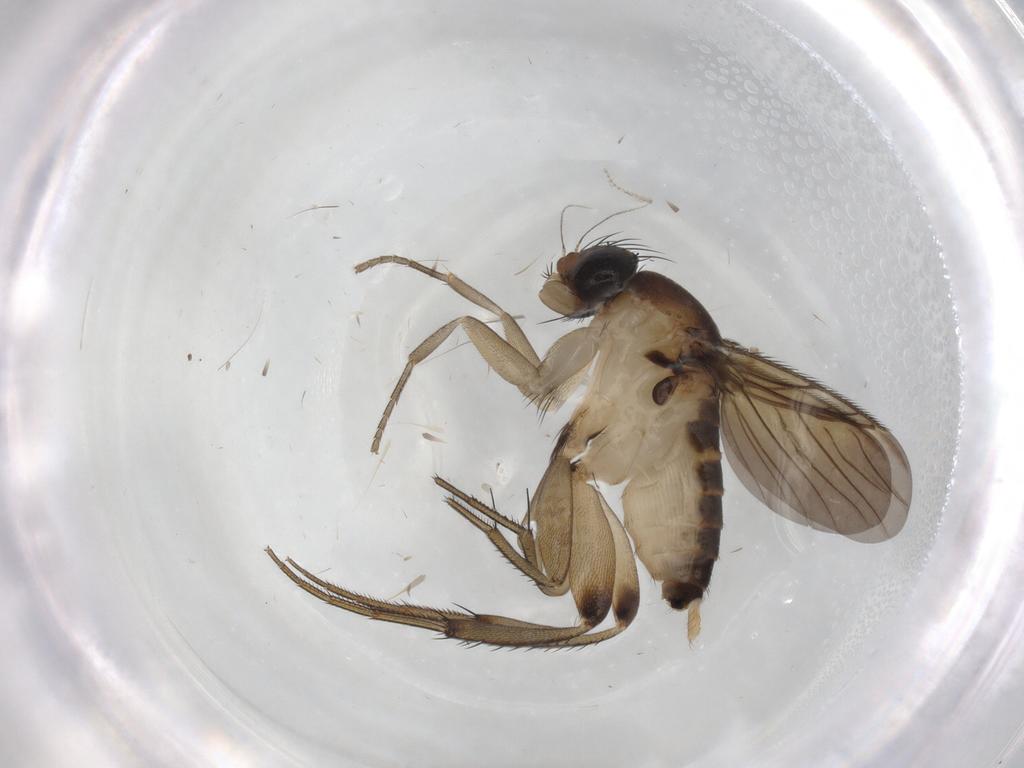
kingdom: Animalia
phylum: Arthropoda
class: Insecta
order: Diptera
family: Phoridae
